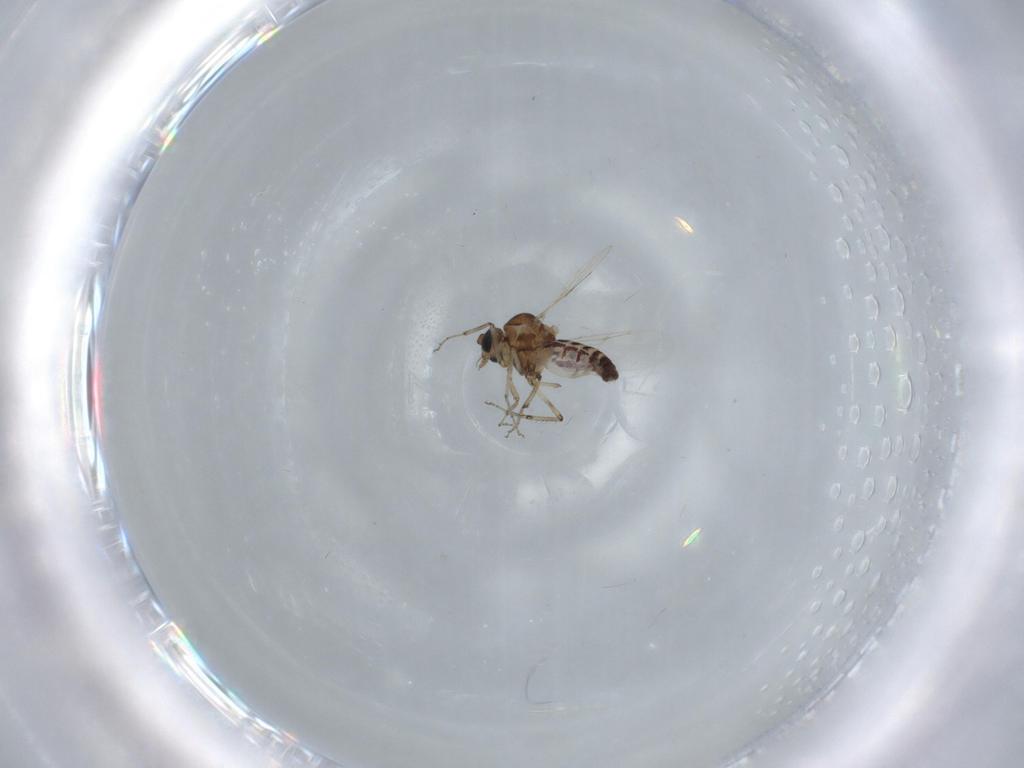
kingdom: Animalia
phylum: Arthropoda
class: Insecta
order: Diptera
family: Ceratopogonidae
